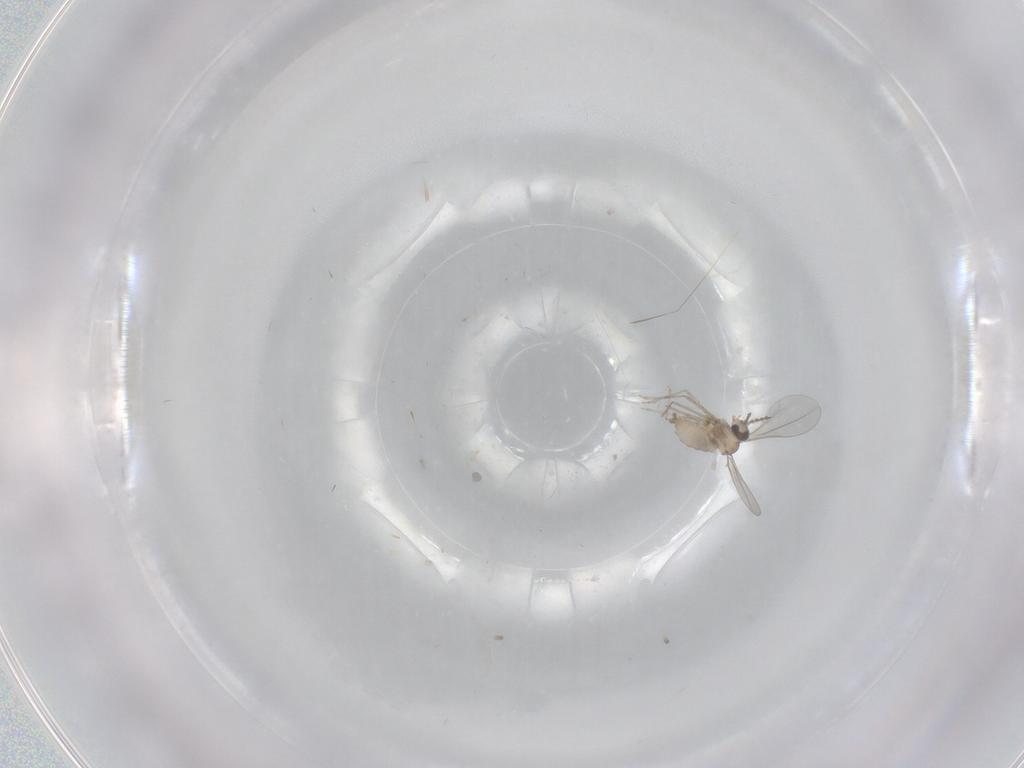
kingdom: Animalia
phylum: Arthropoda
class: Insecta
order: Diptera
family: Cecidomyiidae
